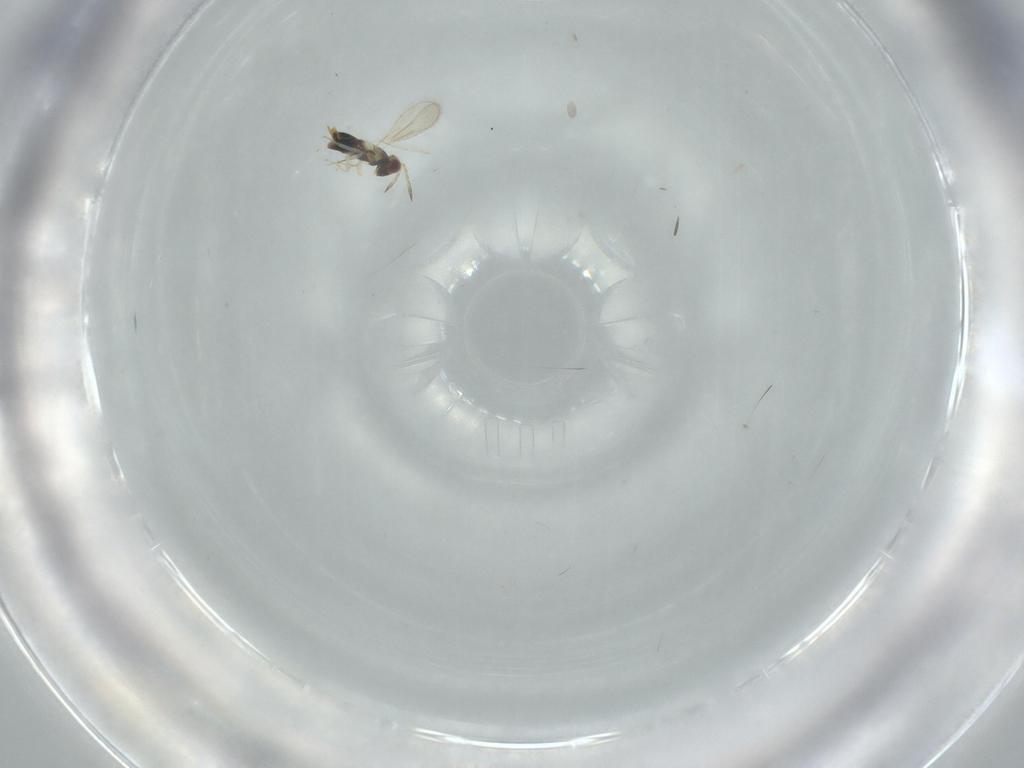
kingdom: Animalia
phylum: Arthropoda
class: Insecta
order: Hymenoptera
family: Aphelinidae
